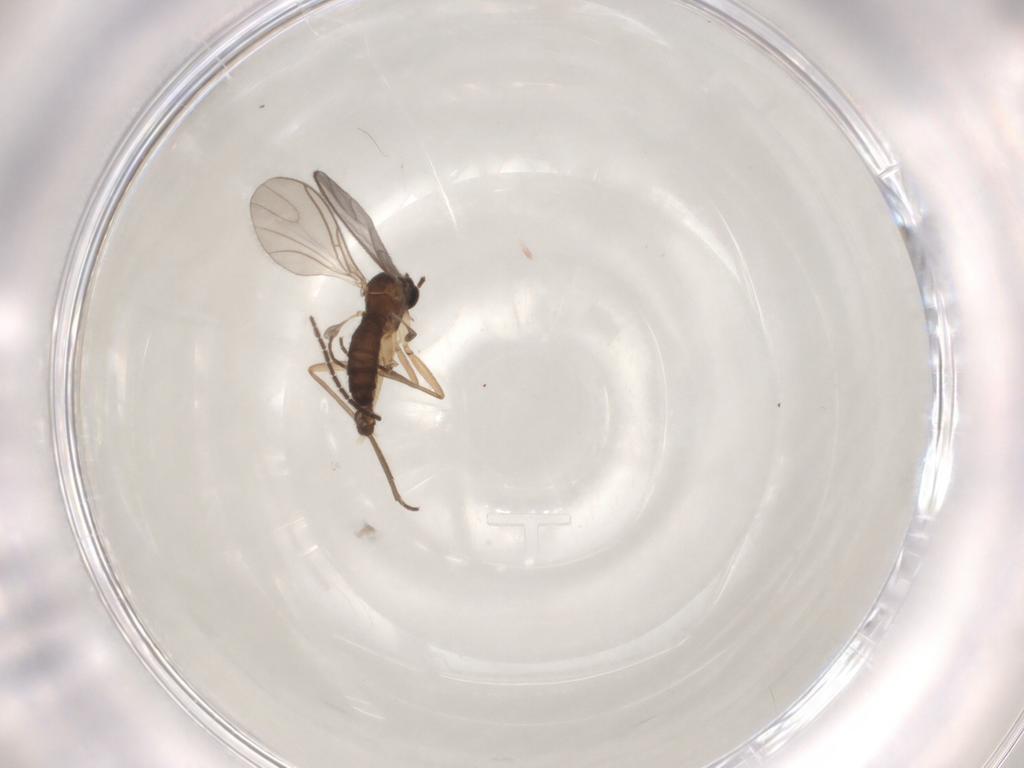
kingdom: Animalia
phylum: Arthropoda
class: Insecta
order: Diptera
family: Sciaridae
